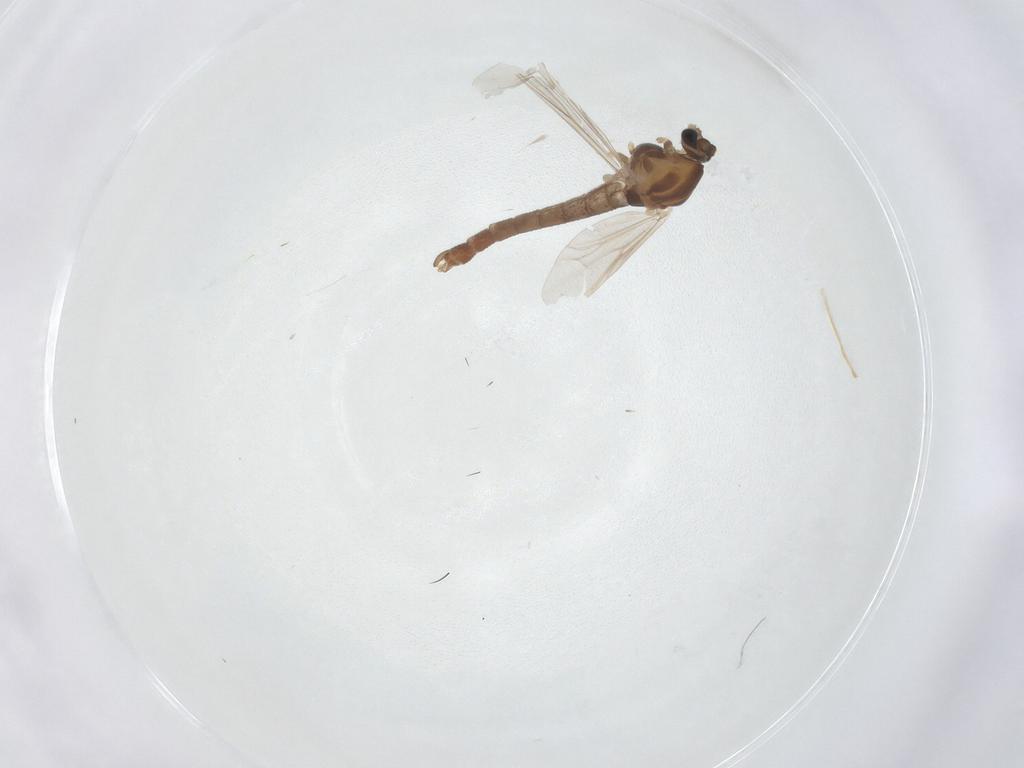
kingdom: Animalia
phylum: Arthropoda
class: Insecta
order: Diptera
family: Chironomidae
